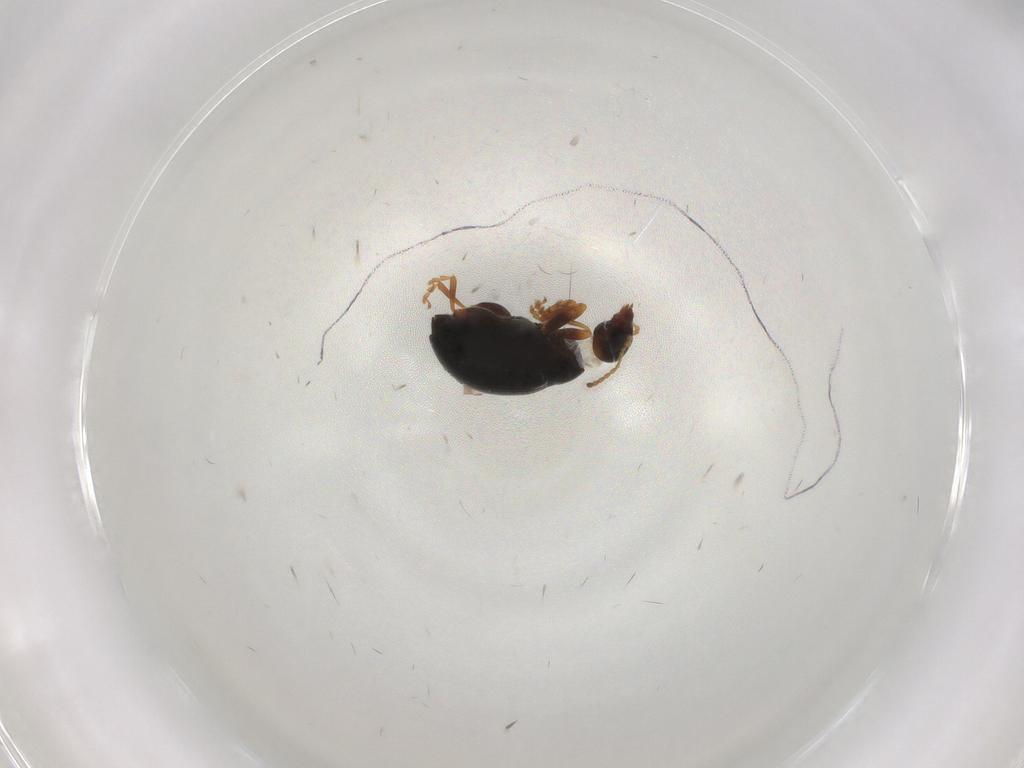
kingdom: Animalia
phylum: Arthropoda
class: Insecta
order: Coleoptera
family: Chrysomelidae
